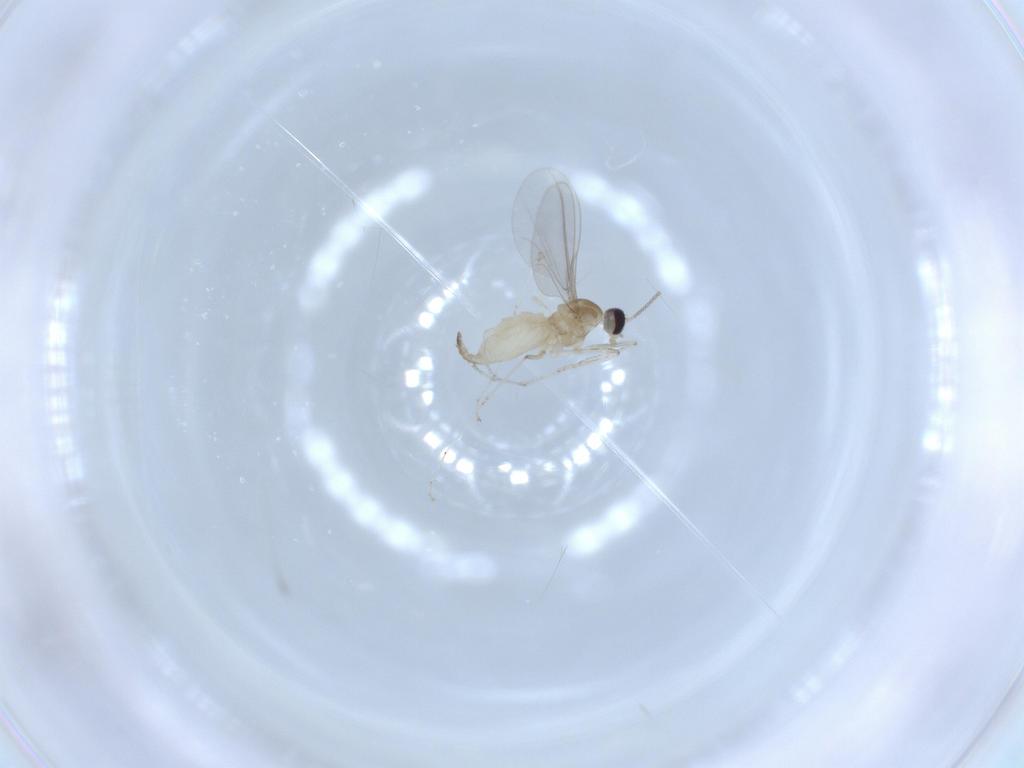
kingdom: Animalia
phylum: Arthropoda
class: Insecta
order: Diptera
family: Cecidomyiidae
